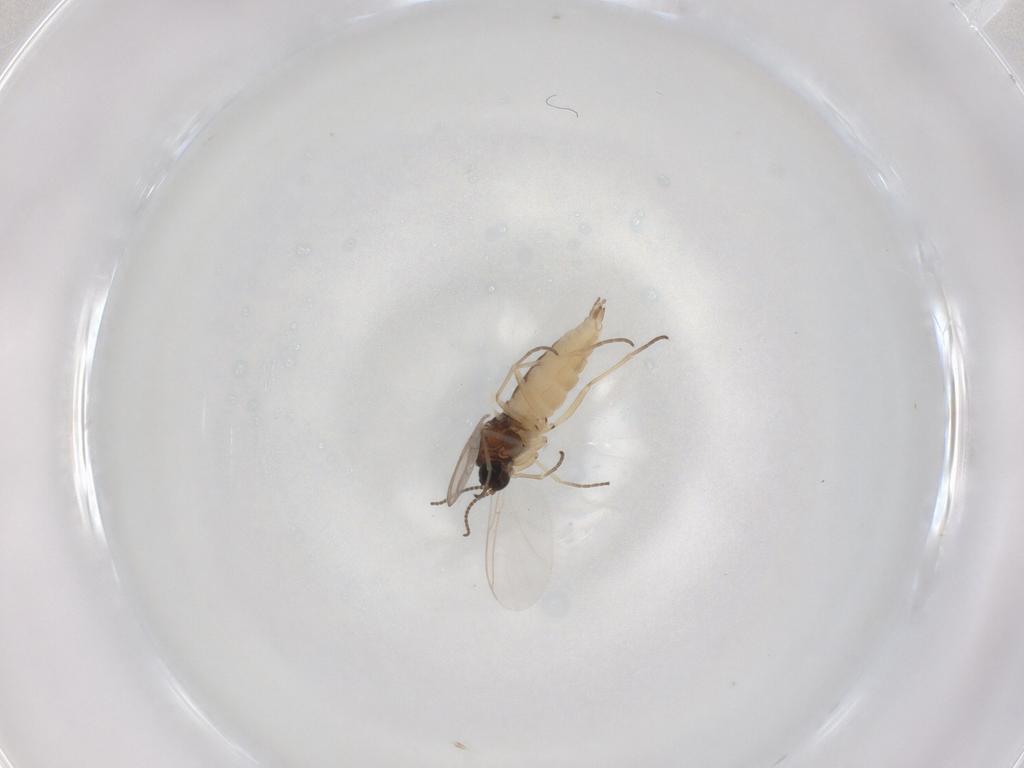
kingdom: Animalia
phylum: Arthropoda
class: Insecta
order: Diptera
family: Sciaridae
